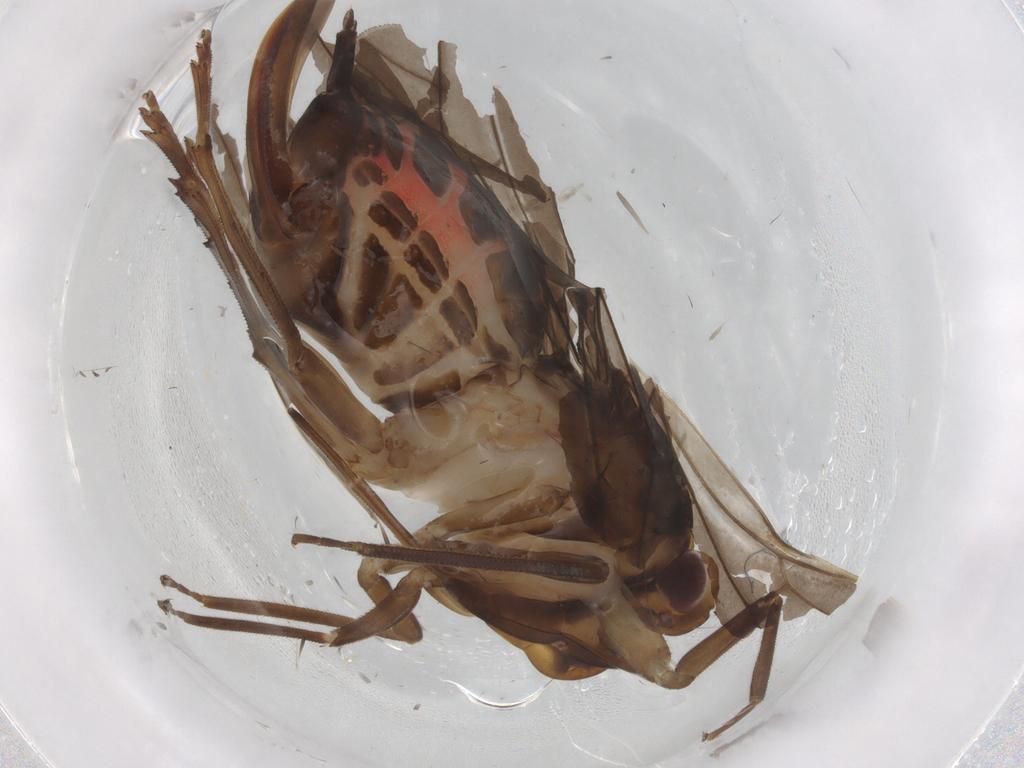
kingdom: Animalia
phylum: Arthropoda
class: Insecta
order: Hemiptera
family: Cixiidae
